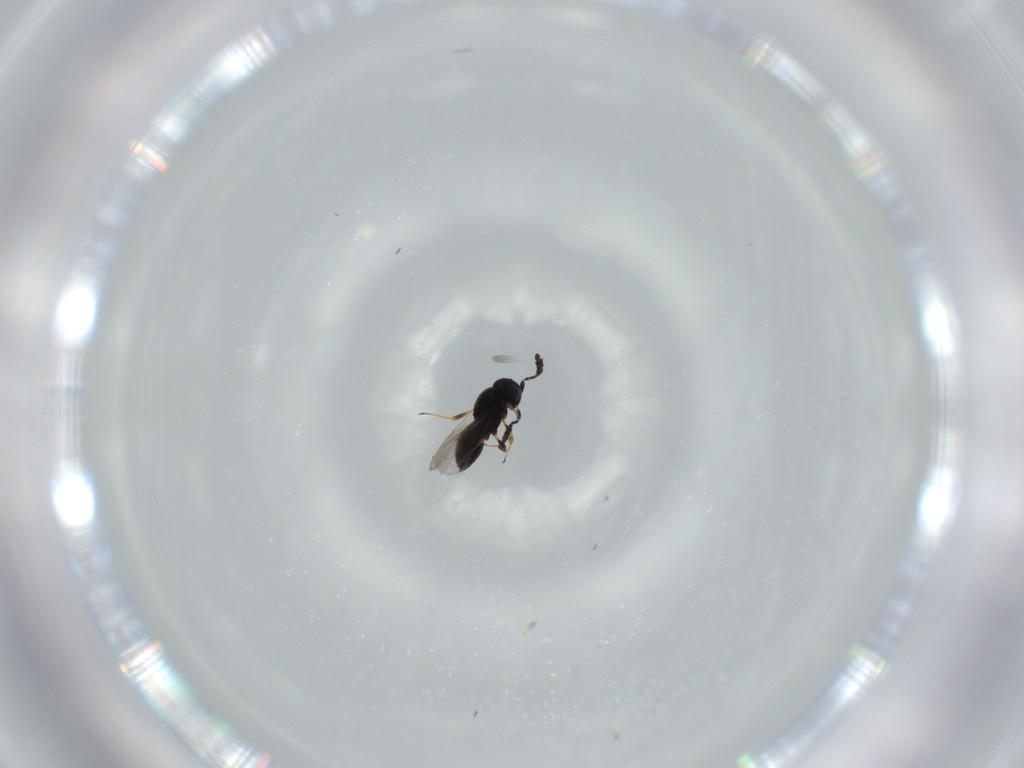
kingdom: Animalia
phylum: Arthropoda
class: Insecta
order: Hymenoptera
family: Scelionidae
